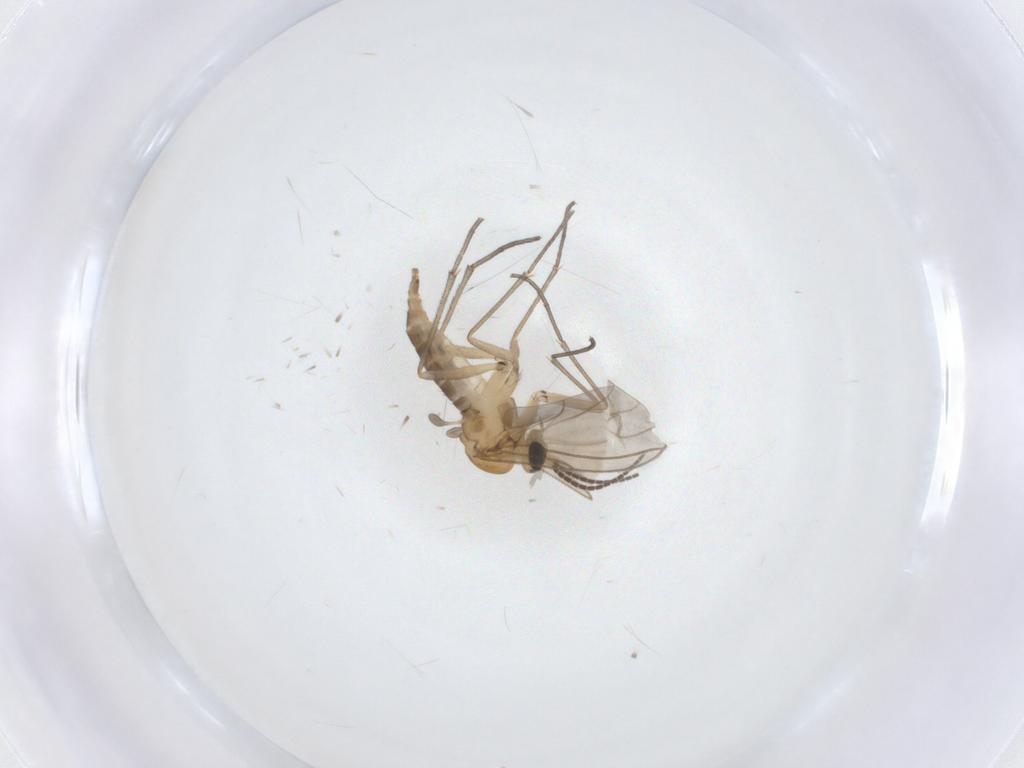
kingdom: Animalia
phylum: Arthropoda
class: Insecta
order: Diptera
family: Sciaridae
